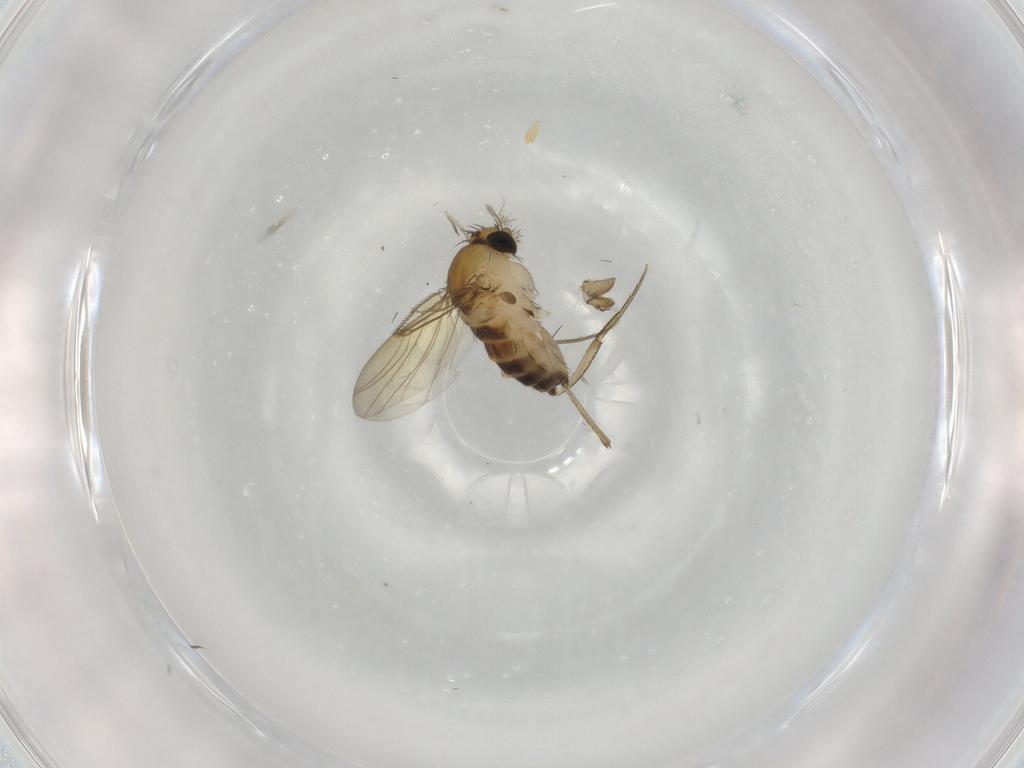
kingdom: Animalia
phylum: Arthropoda
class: Insecta
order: Diptera
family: Phoridae
